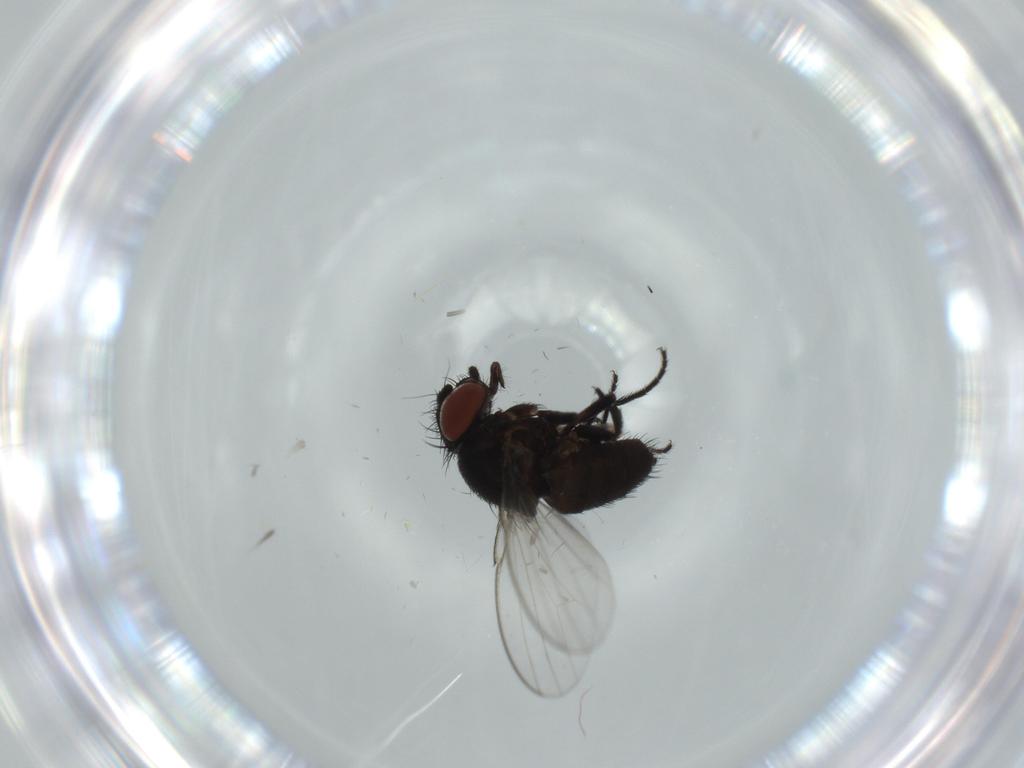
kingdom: Animalia
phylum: Arthropoda
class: Insecta
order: Diptera
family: Milichiidae
